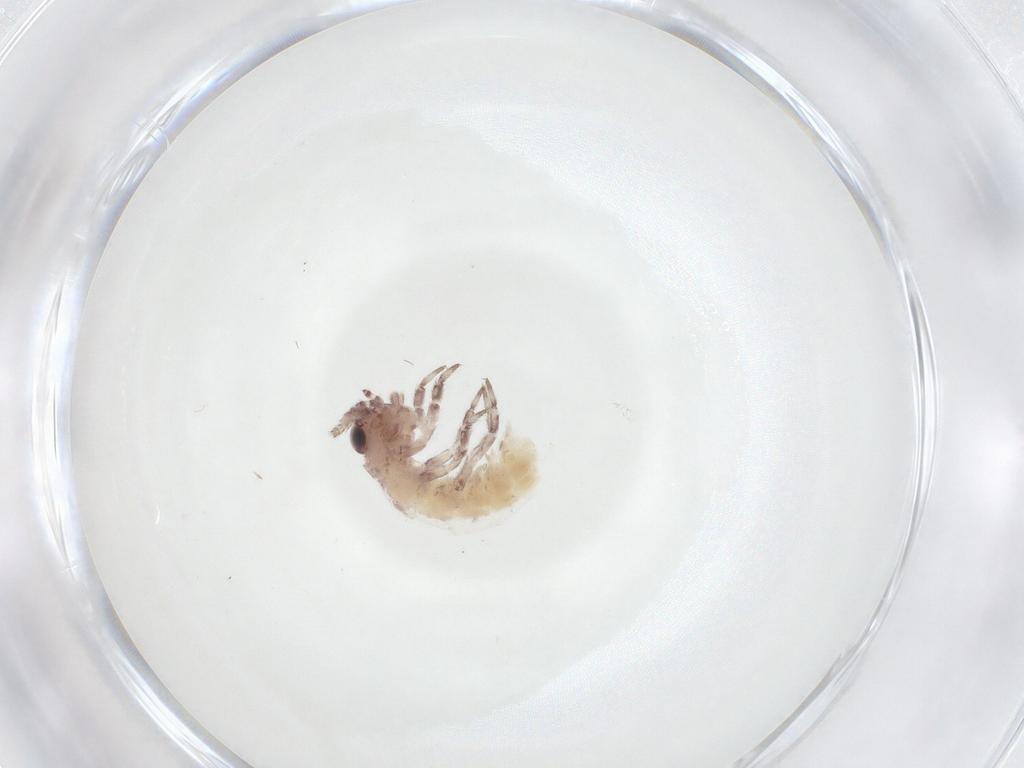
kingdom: Animalia
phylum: Arthropoda
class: Insecta
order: Archaeognatha
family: Machilidae
